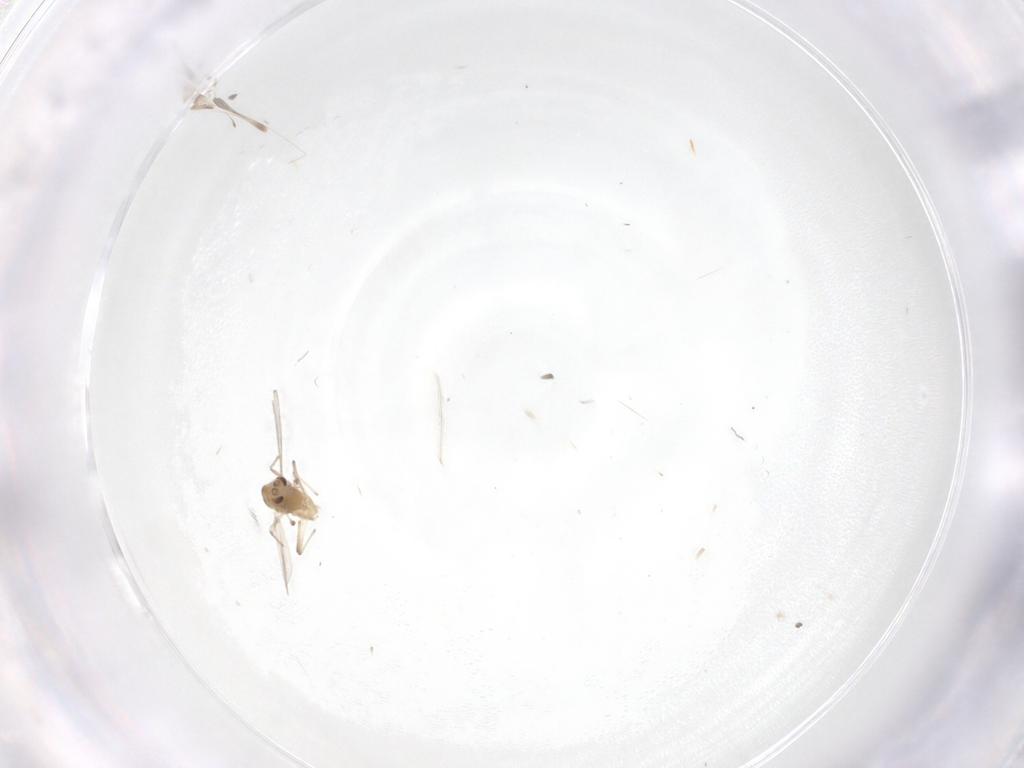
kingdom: Animalia
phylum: Arthropoda
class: Insecta
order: Diptera
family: Chironomidae
